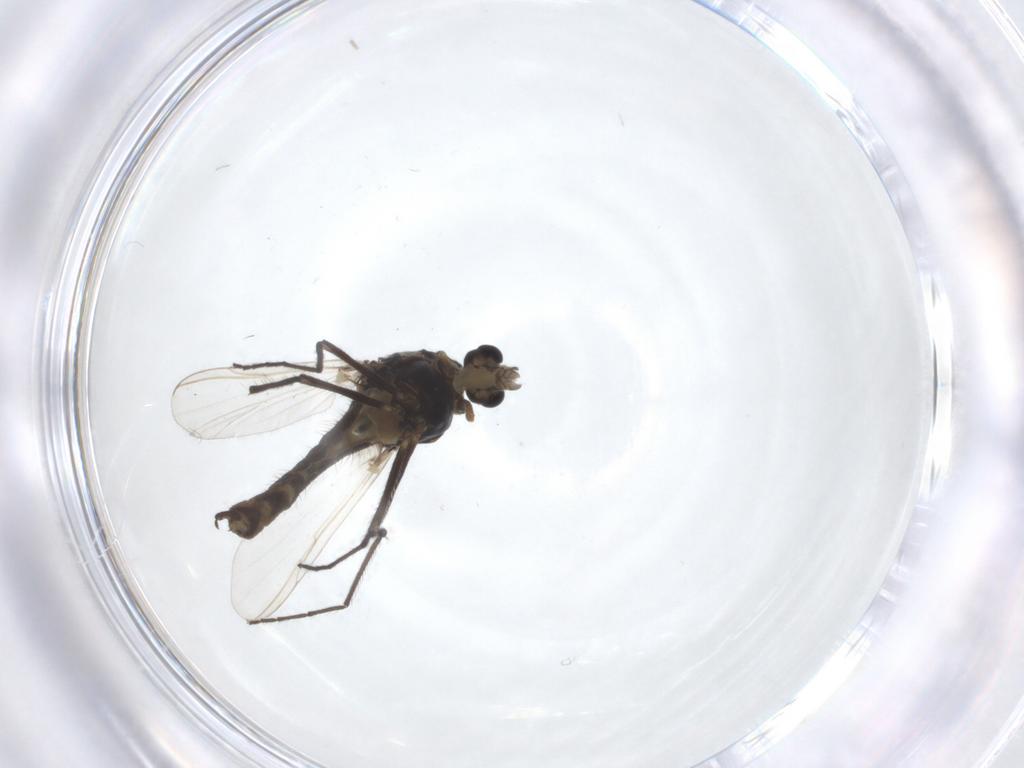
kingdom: Animalia
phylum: Arthropoda
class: Insecta
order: Diptera
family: Chironomidae
